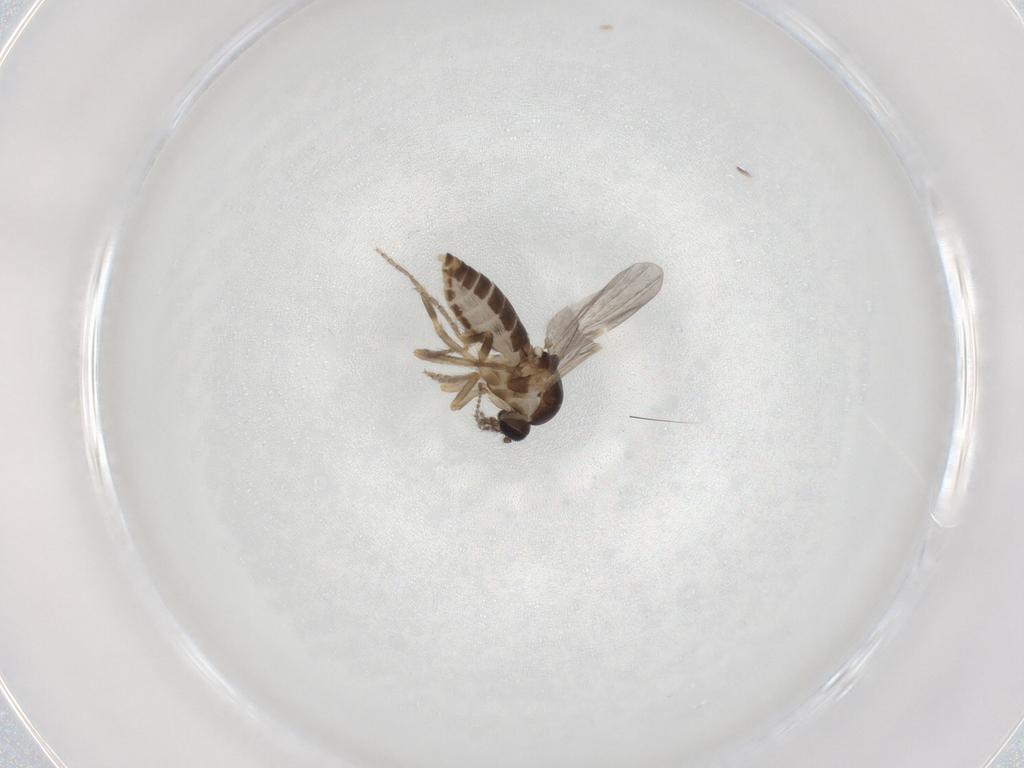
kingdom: Animalia
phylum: Arthropoda
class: Insecta
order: Diptera
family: Ceratopogonidae
